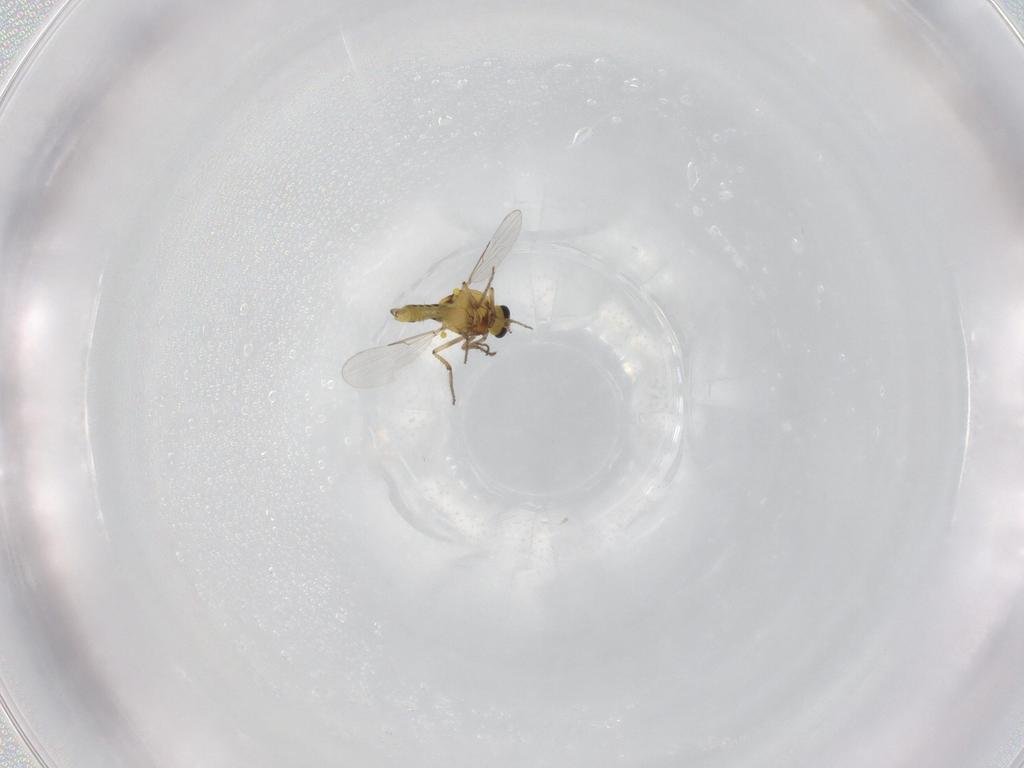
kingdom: Animalia
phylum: Arthropoda
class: Insecta
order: Diptera
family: Ceratopogonidae
